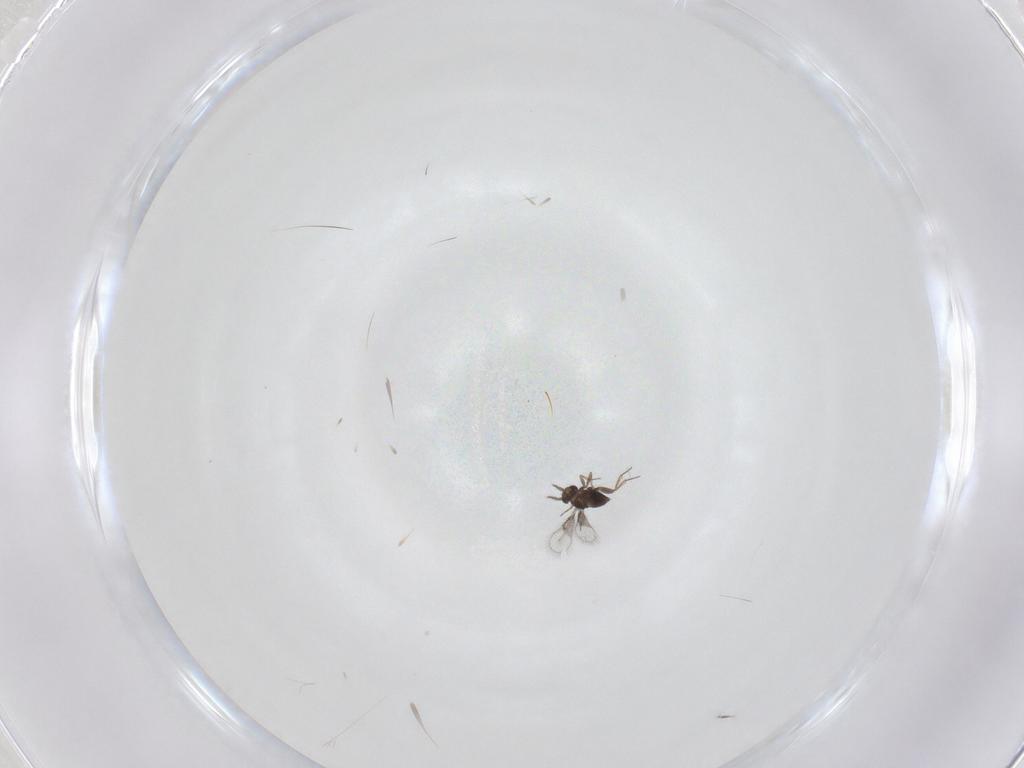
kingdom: Animalia
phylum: Arthropoda
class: Insecta
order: Hymenoptera
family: Trichogrammatidae
